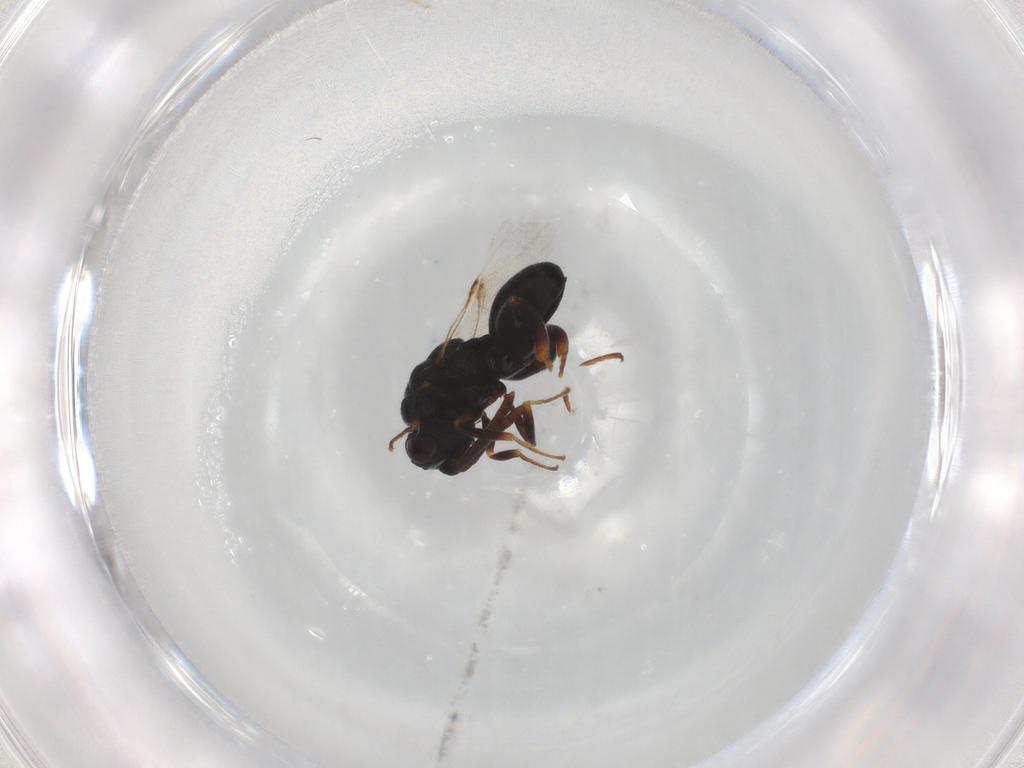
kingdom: Animalia
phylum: Arthropoda
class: Insecta
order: Hymenoptera
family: Chalcididae
